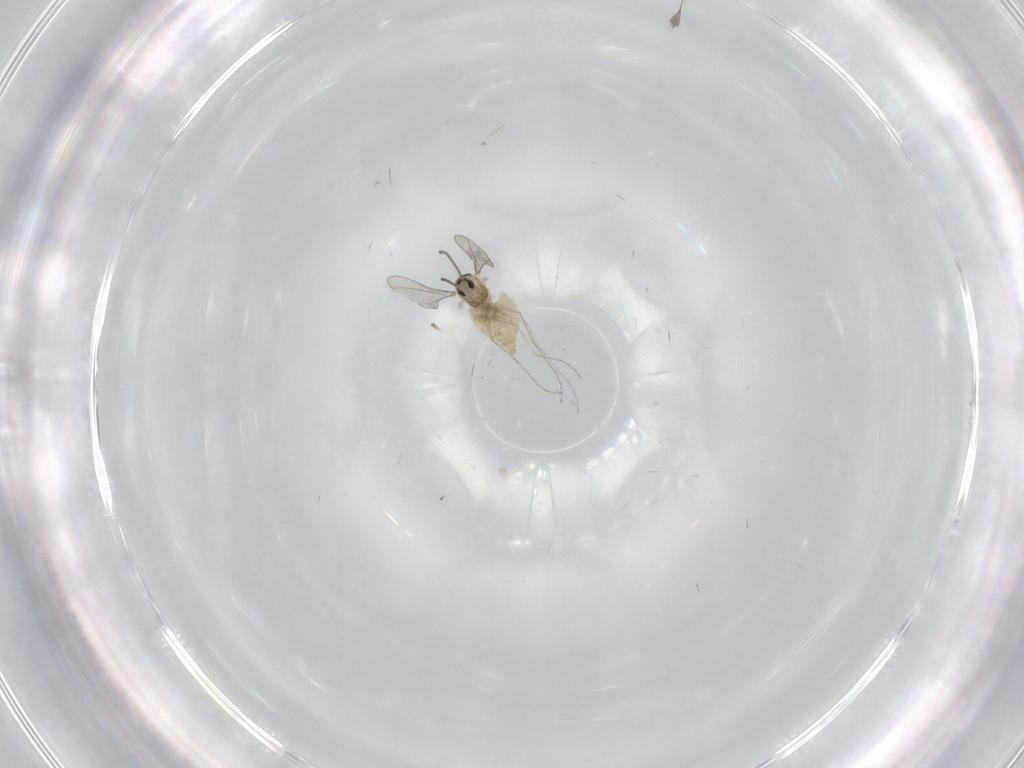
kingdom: Animalia
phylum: Arthropoda
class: Insecta
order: Diptera
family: Cecidomyiidae
